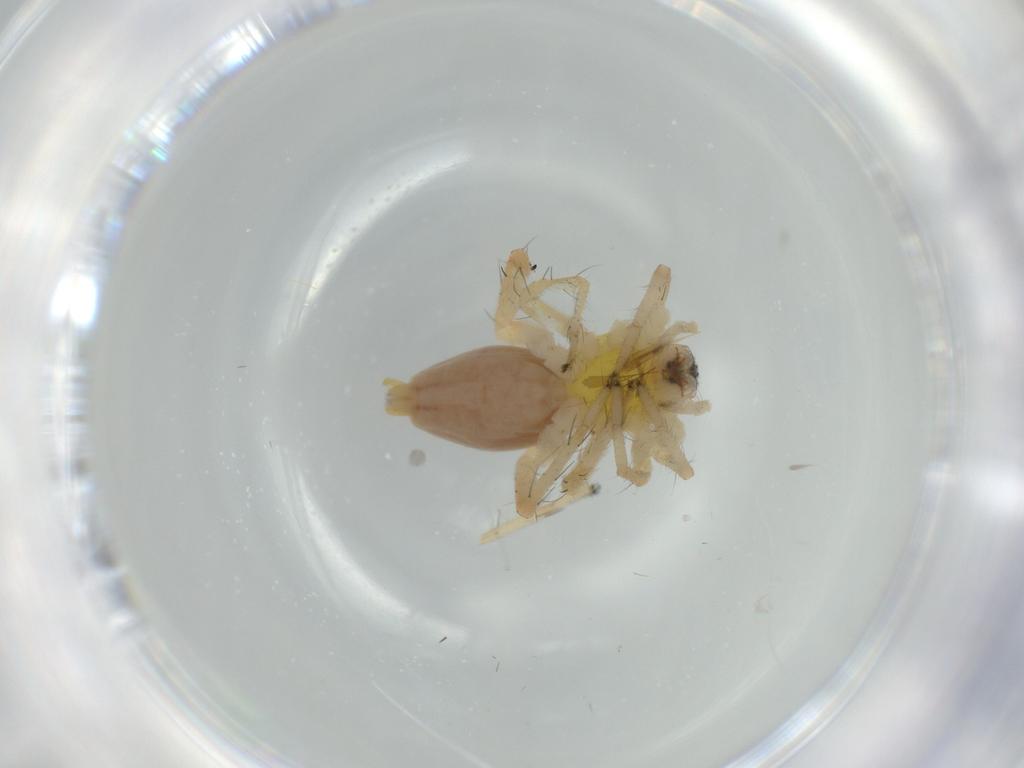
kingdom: Animalia
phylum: Arthropoda
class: Arachnida
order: Araneae
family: Anyphaenidae
